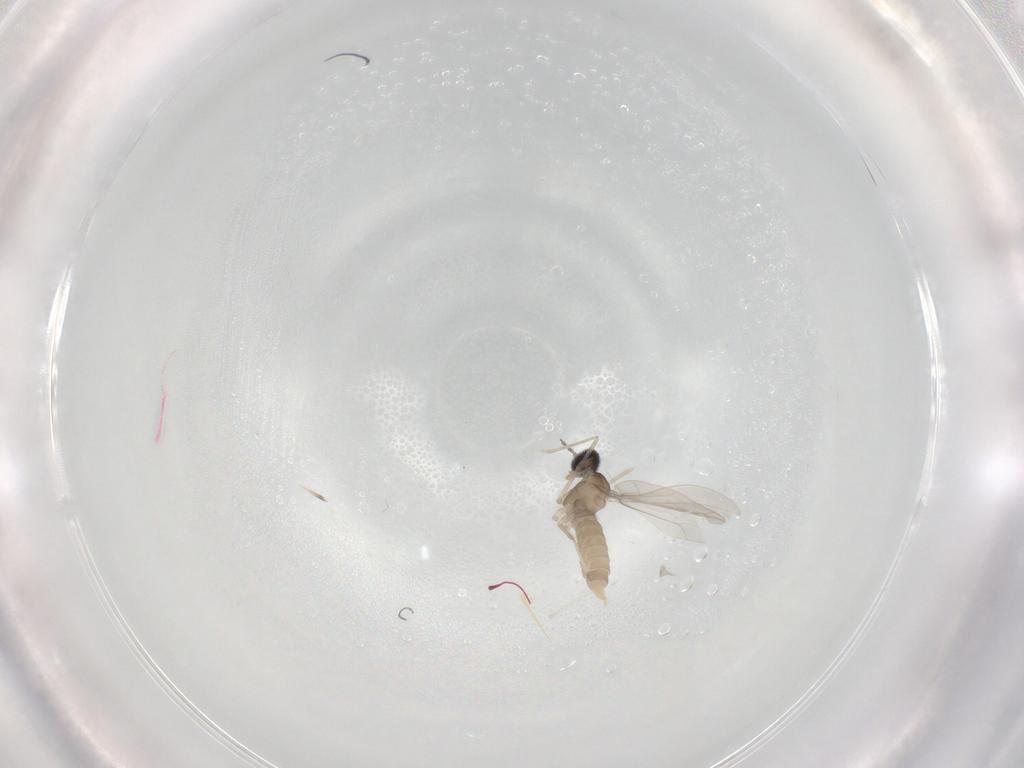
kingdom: Animalia
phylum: Arthropoda
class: Insecta
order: Diptera
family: Cecidomyiidae
